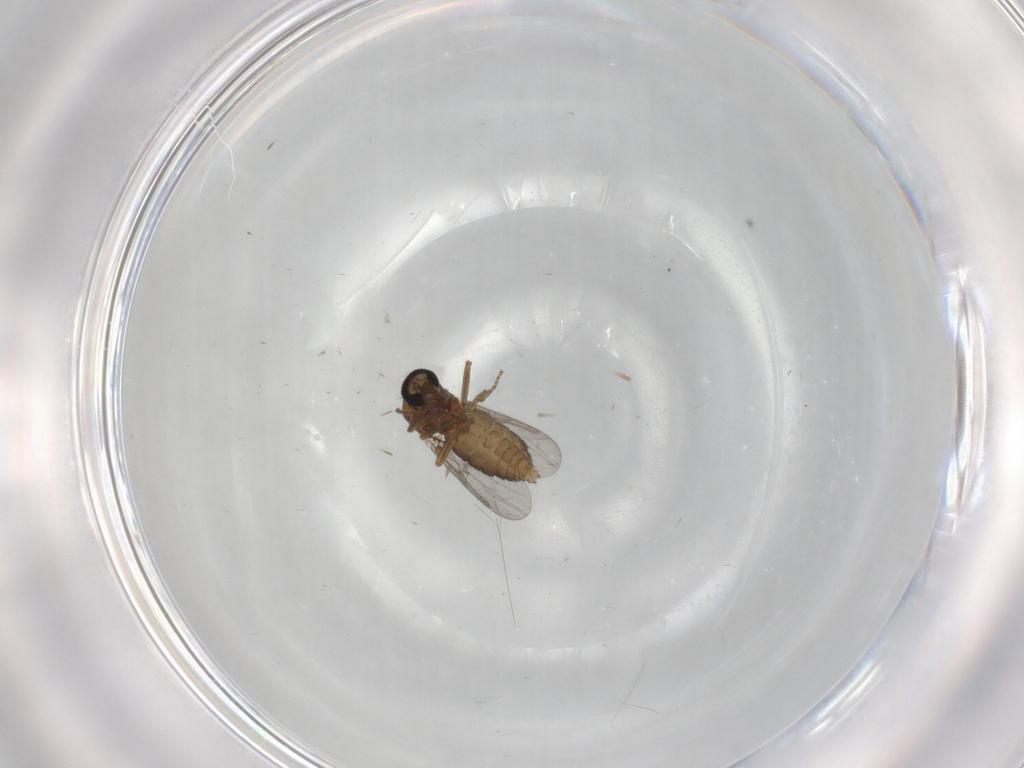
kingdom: Animalia
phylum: Arthropoda
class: Insecta
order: Diptera
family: Ceratopogonidae
